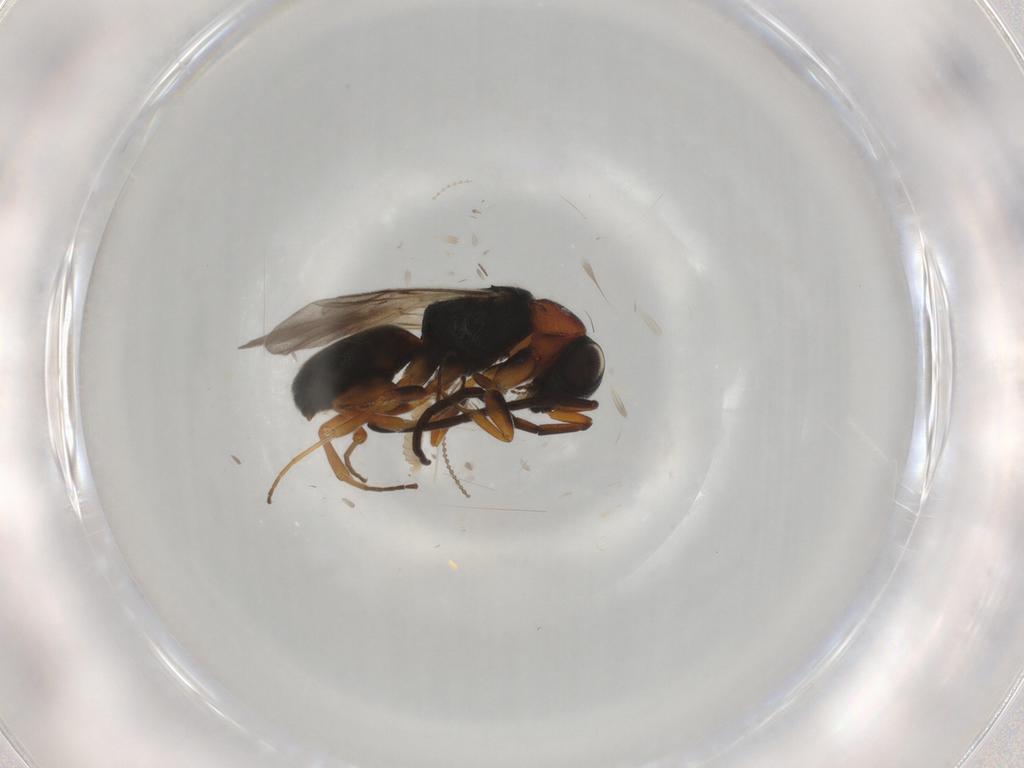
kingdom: Animalia
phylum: Arthropoda
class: Insecta
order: Hymenoptera
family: Chrysididae
